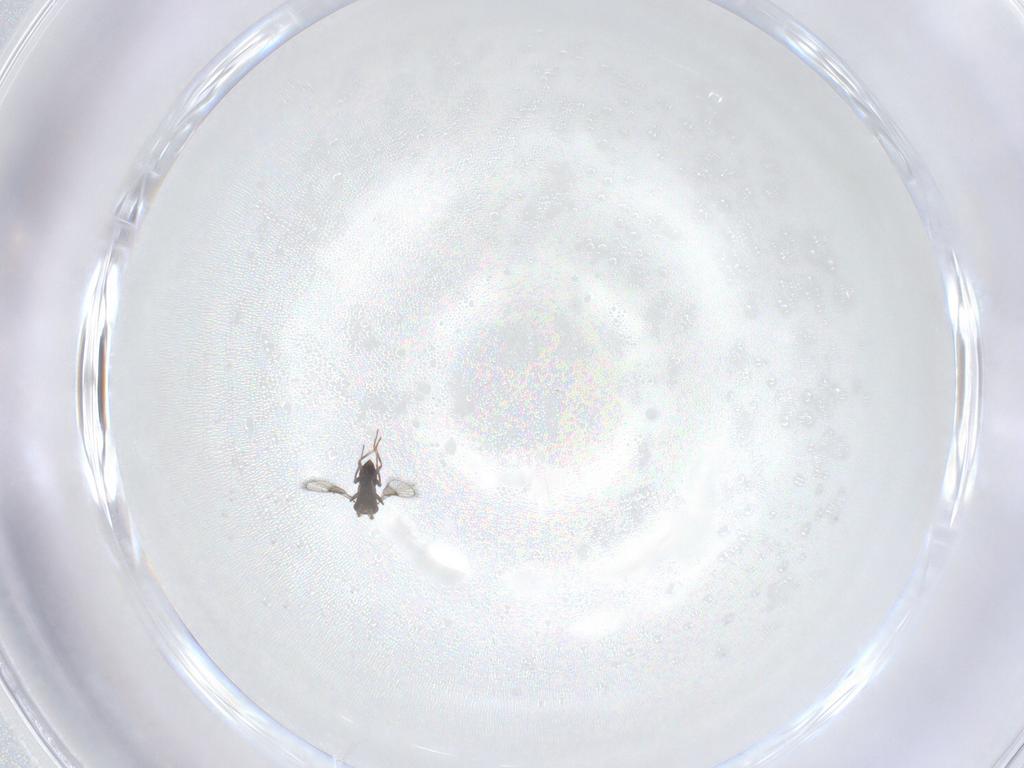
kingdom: Animalia
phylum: Arthropoda
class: Insecta
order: Hymenoptera
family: Trichogrammatidae
